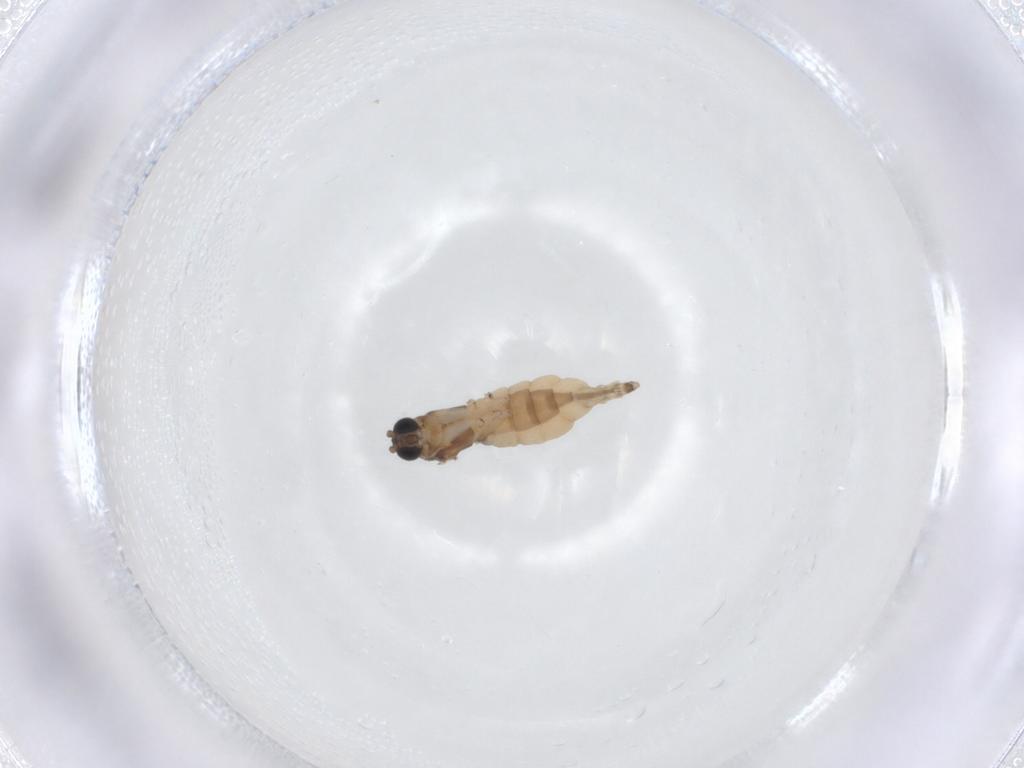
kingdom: Animalia
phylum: Arthropoda
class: Insecta
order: Diptera
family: Sciaridae
